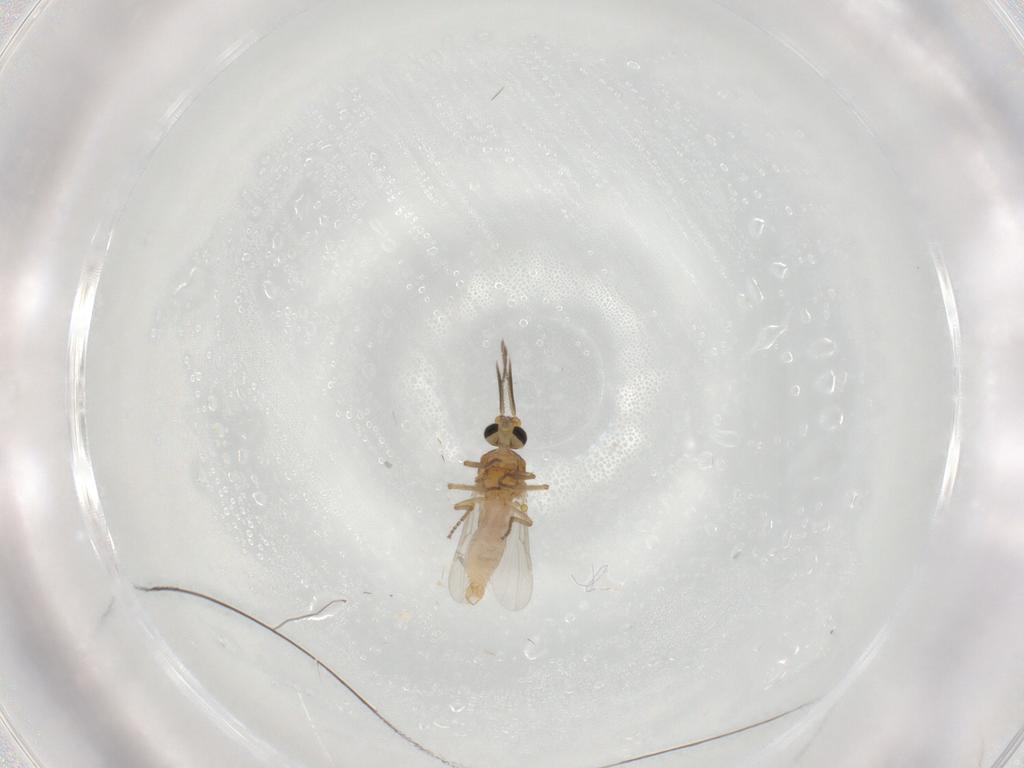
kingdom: Animalia
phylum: Arthropoda
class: Insecta
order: Diptera
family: Ceratopogonidae
